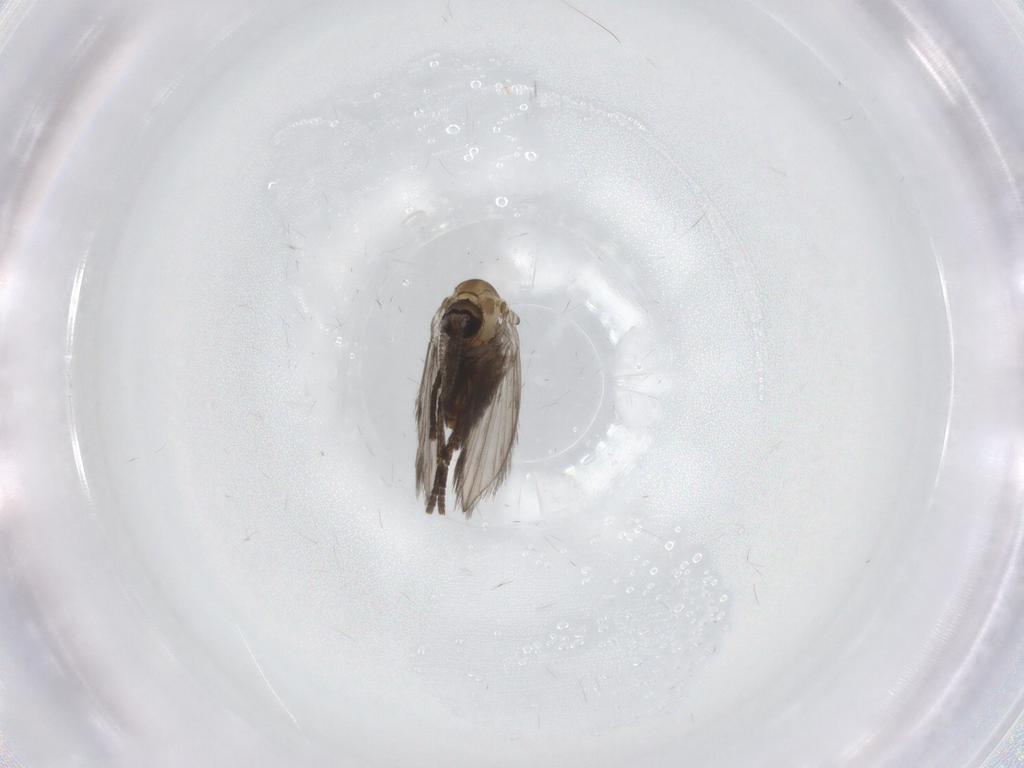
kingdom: Animalia
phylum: Arthropoda
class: Insecta
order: Diptera
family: Psychodidae
